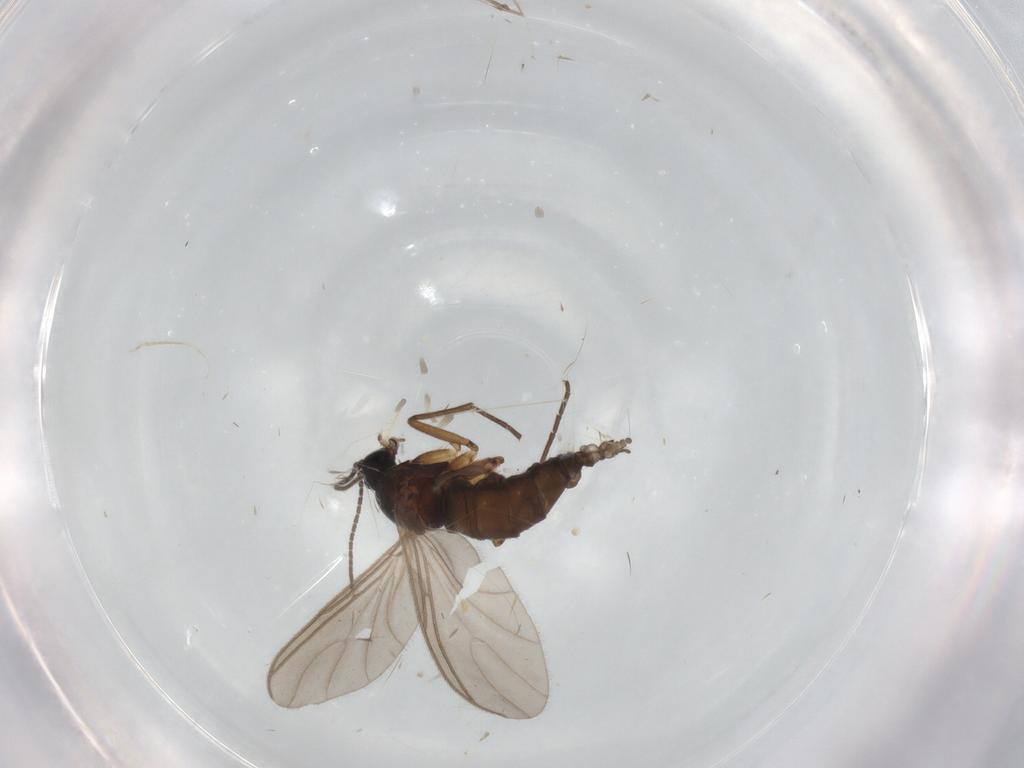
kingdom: Animalia
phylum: Arthropoda
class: Insecta
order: Diptera
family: Sciaridae
